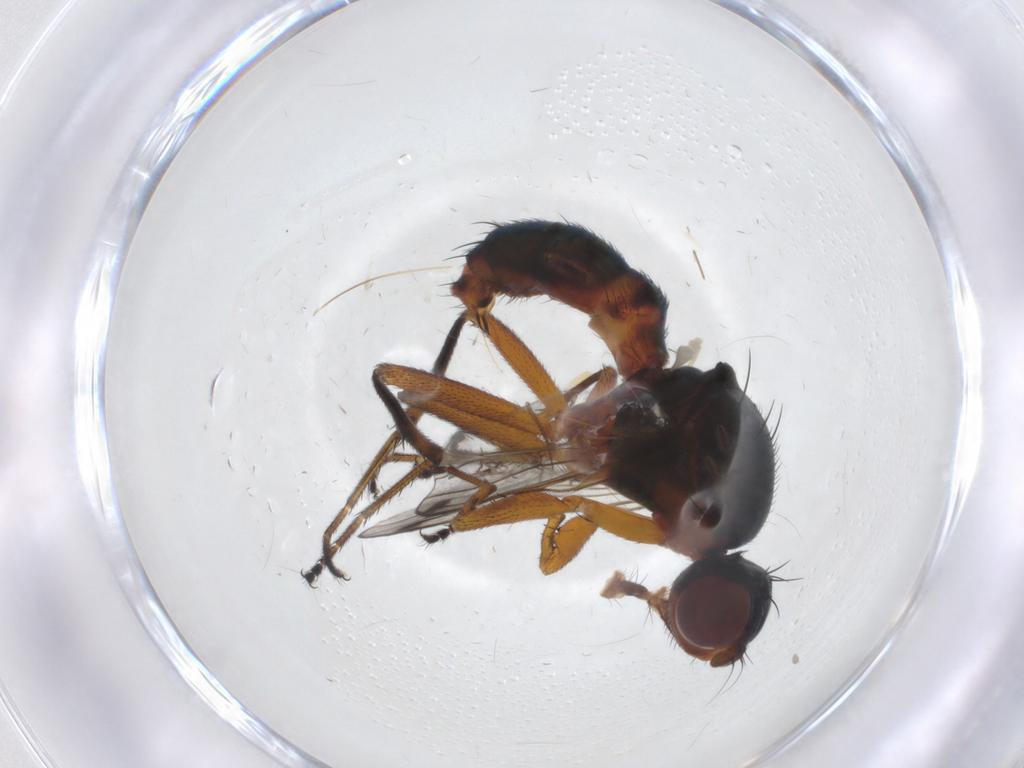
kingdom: Animalia
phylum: Arthropoda
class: Insecta
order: Diptera
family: Sepsidae
